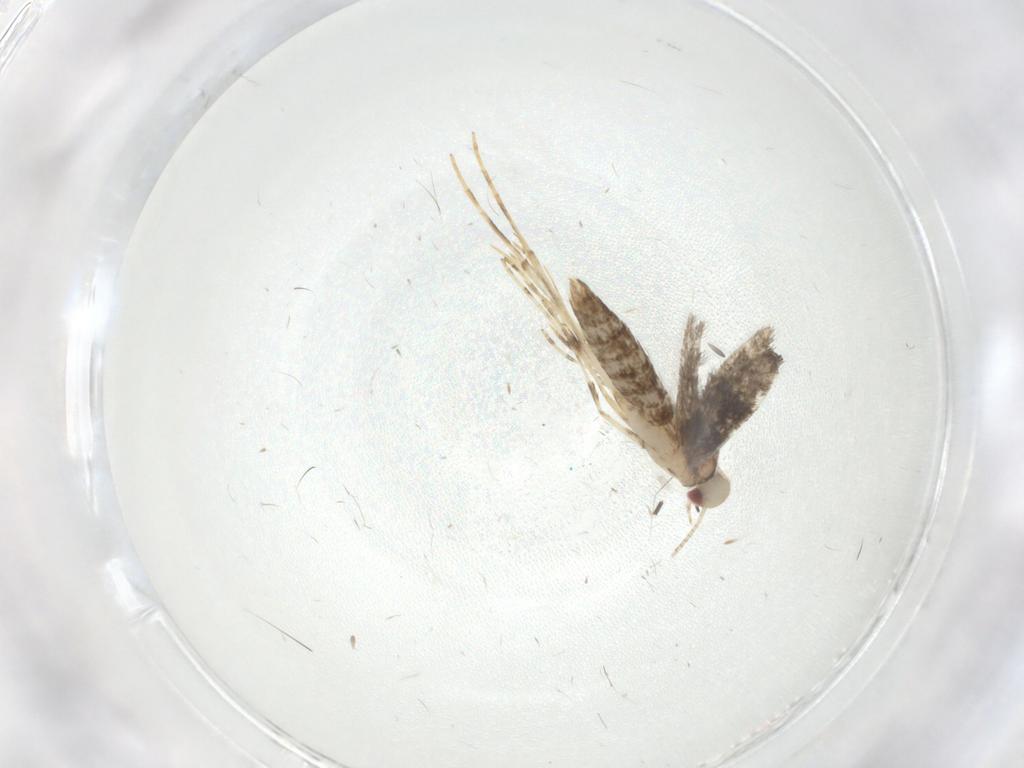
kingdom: Animalia
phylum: Arthropoda
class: Insecta
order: Lepidoptera
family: Gracillariidae
